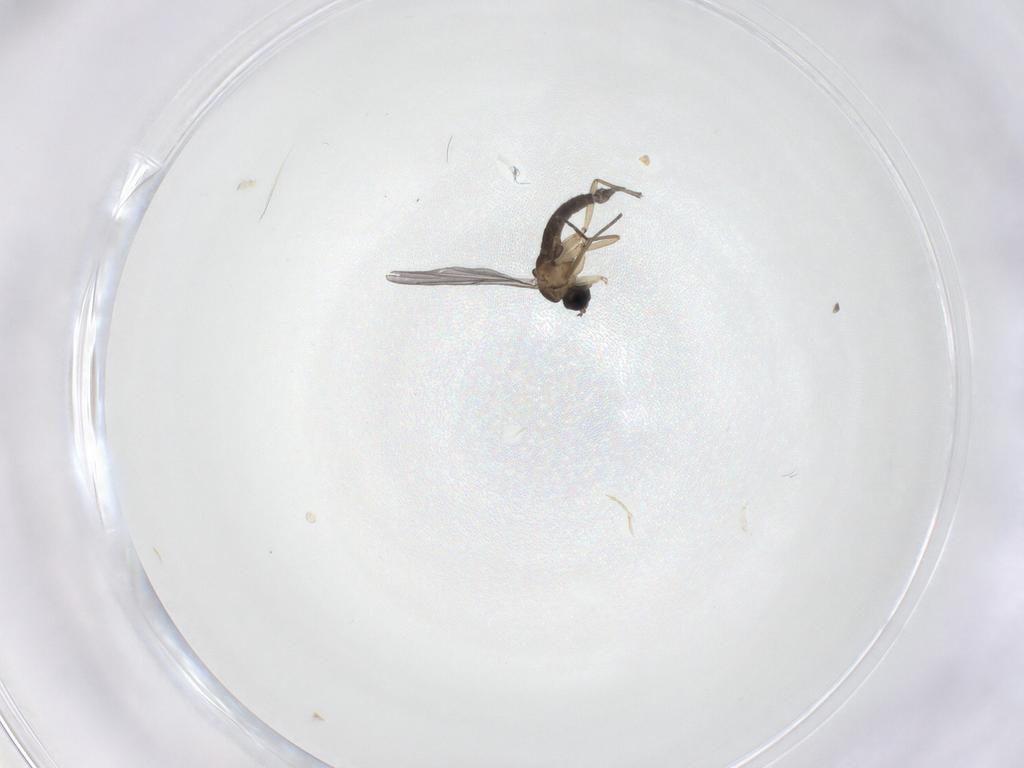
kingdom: Animalia
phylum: Arthropoda
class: Insecta
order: Diptera
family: Sciaridae
